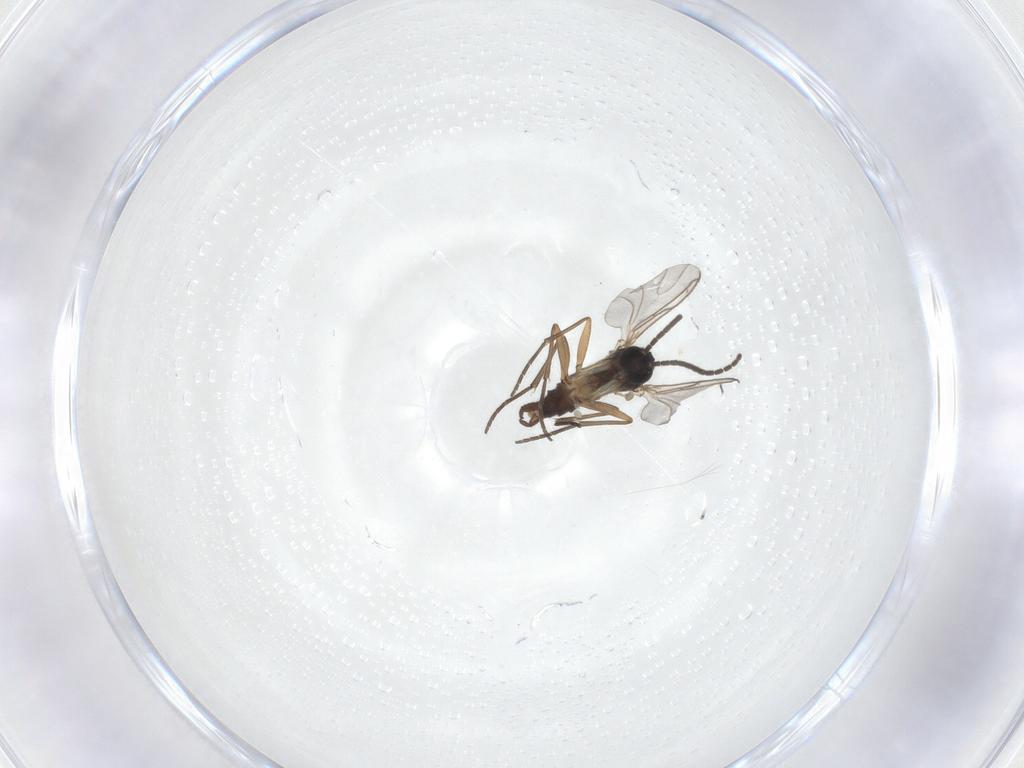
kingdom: Animalia
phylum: Arthropoda
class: Insecta
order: Diptera
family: Sciaridae
